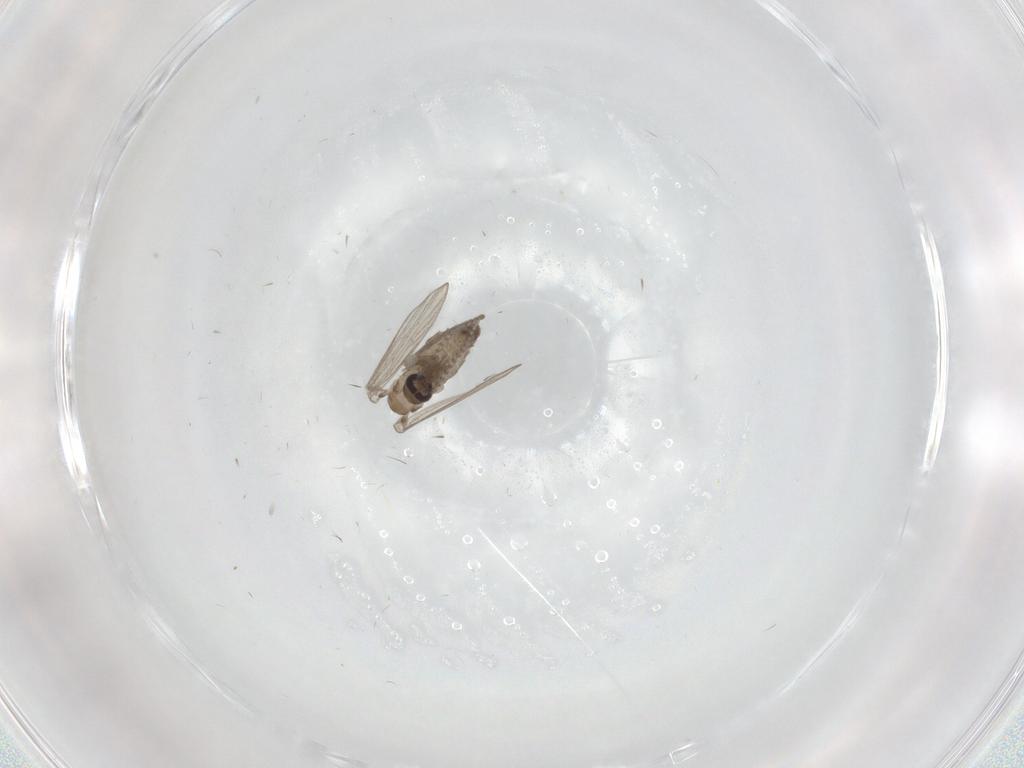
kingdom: Animalia
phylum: Arthropoda
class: Insecta
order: Diptera
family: Psychodidae
